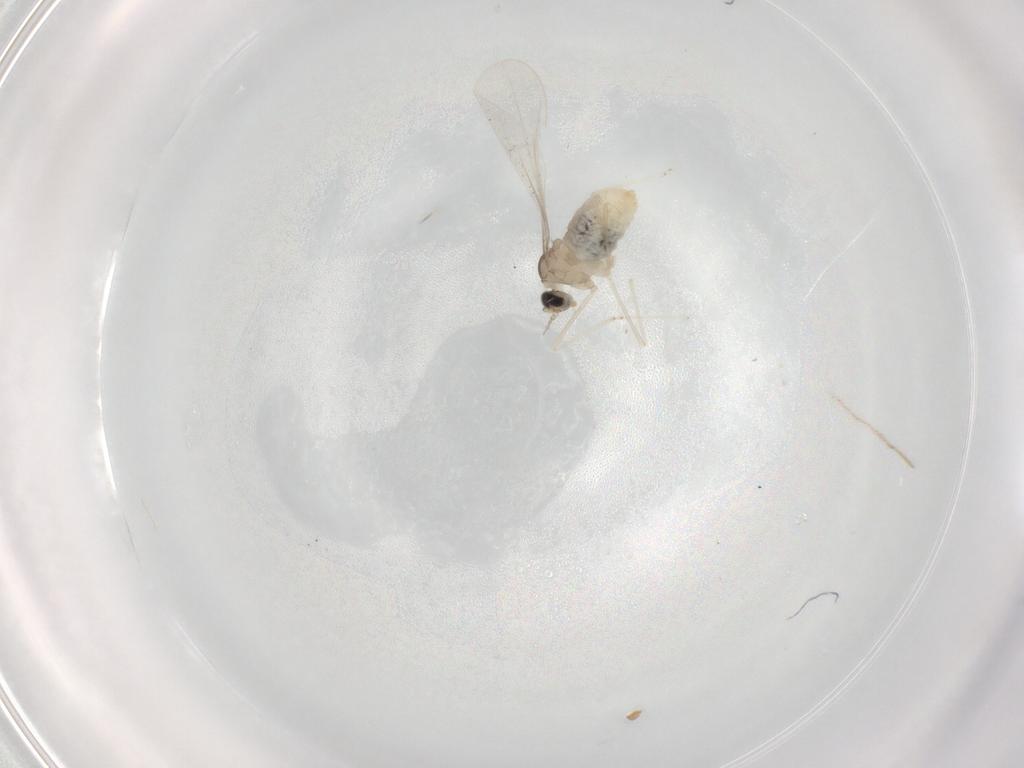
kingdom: Animalia
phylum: Arthropoda
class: Insecta
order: Diptera
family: Cecidomyiidae
